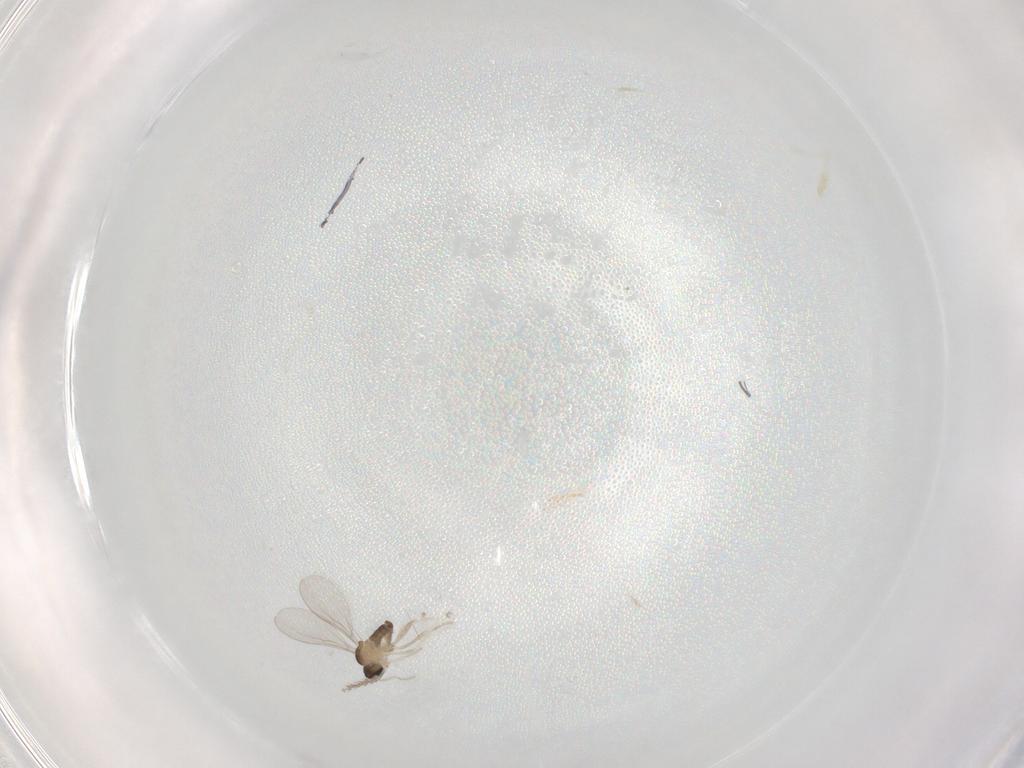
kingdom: Animalia
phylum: Arthropoda
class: Insecta
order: Diptera
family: Cecidomyiidae
